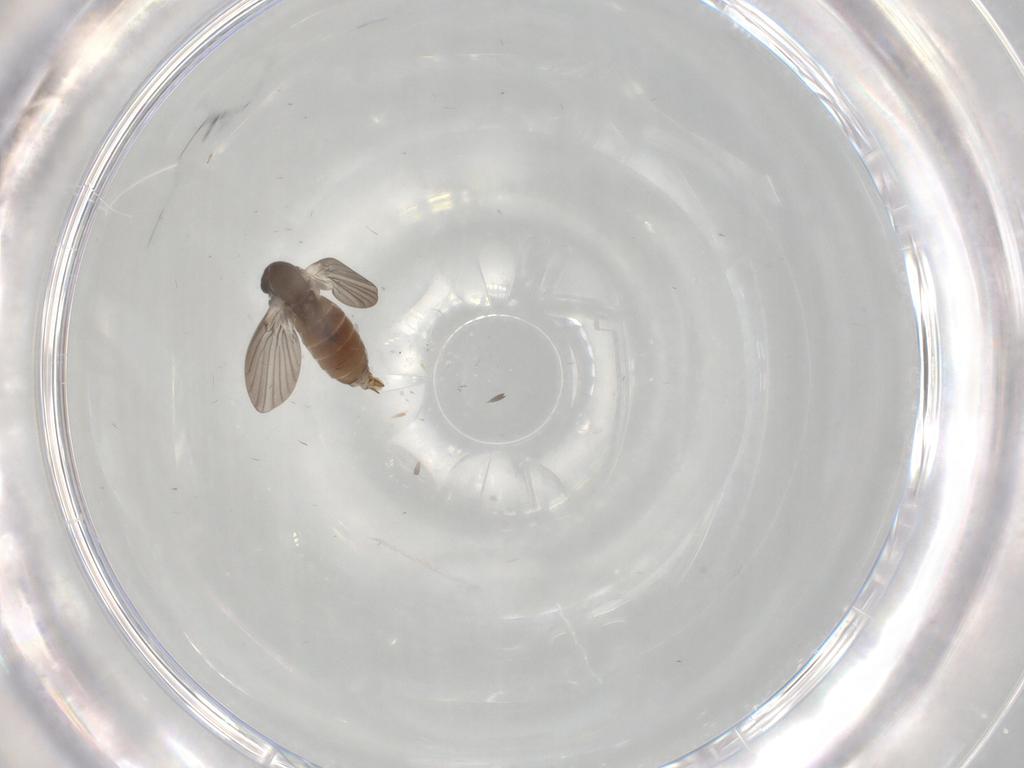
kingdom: Animalia
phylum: Arthropoda
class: Insecta
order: Diptera
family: Cecidomyiidae
